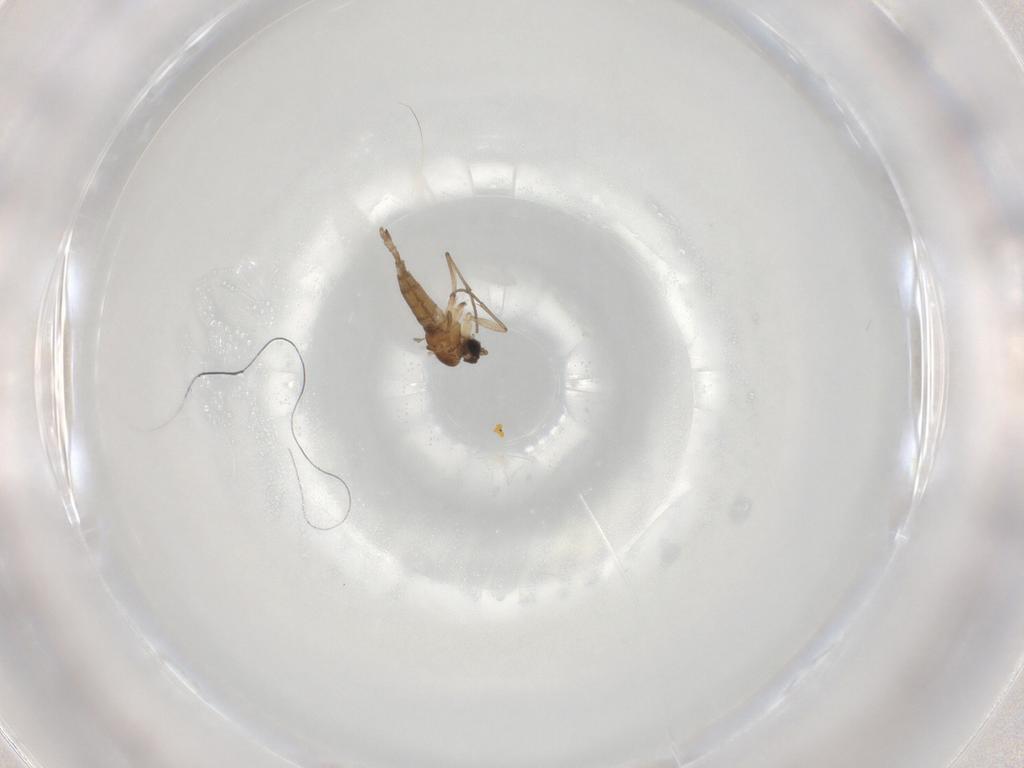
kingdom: Animalia
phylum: Arthropoda
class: Insecta
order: Diptera
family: Sciaridae
